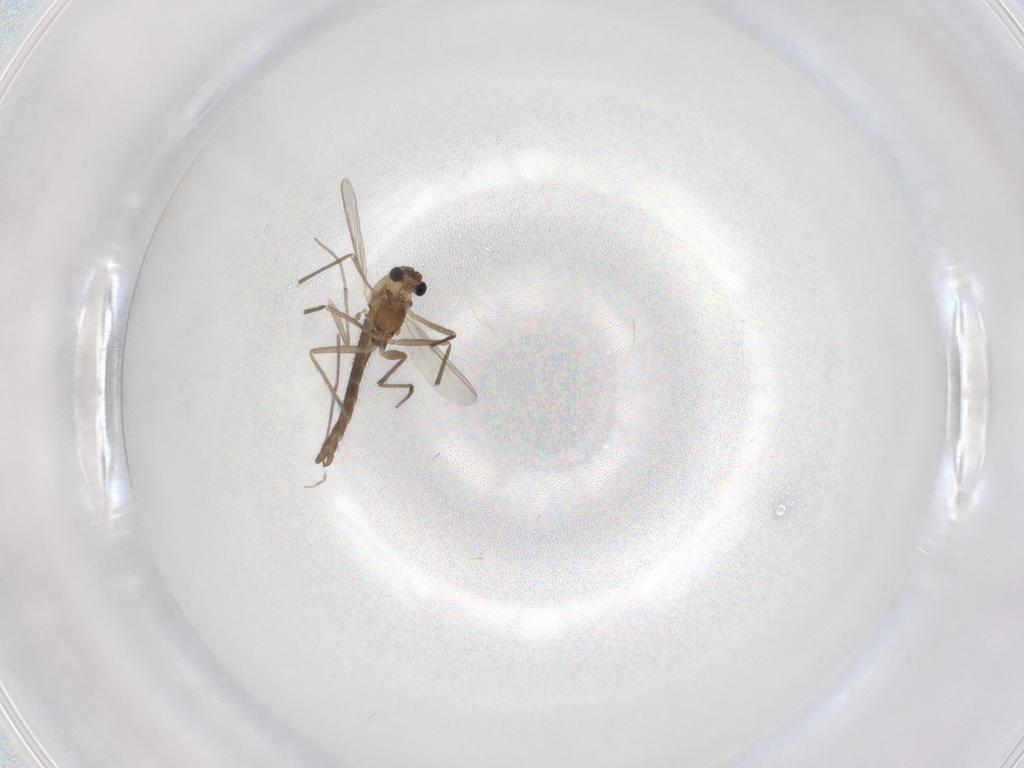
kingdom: Animalia
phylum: Arthropoda
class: Insecta
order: Diptera
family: Chironomidae
